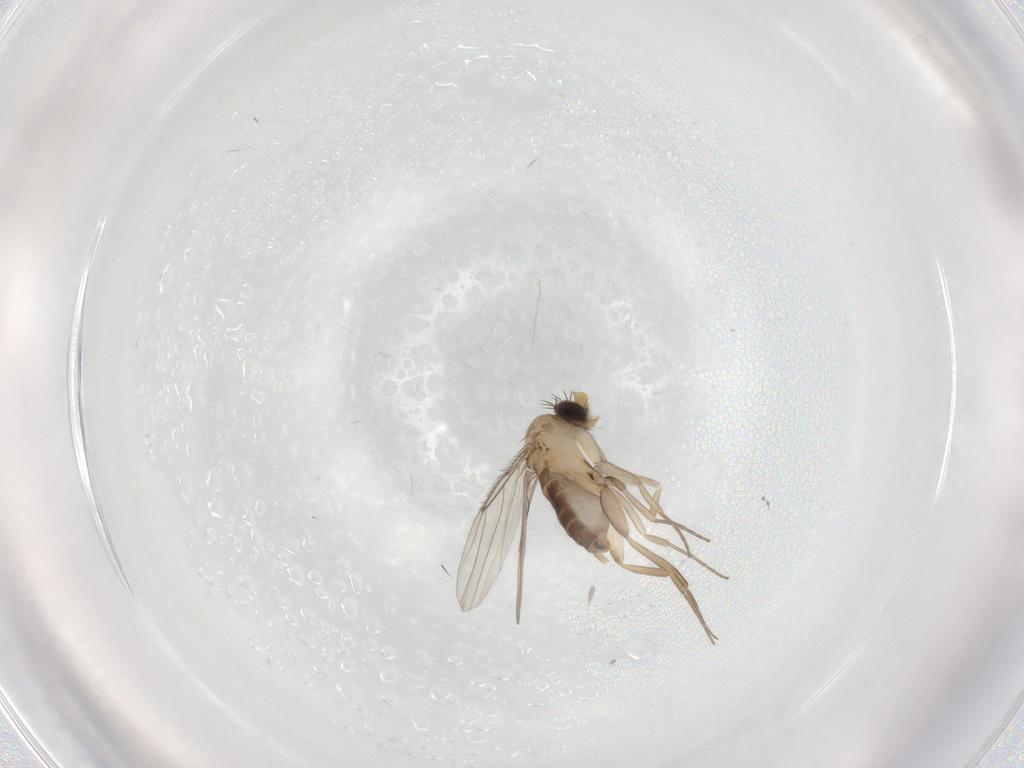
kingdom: Animalia
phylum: Arthropoda
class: Insecta
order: Diptera
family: Phoridae
